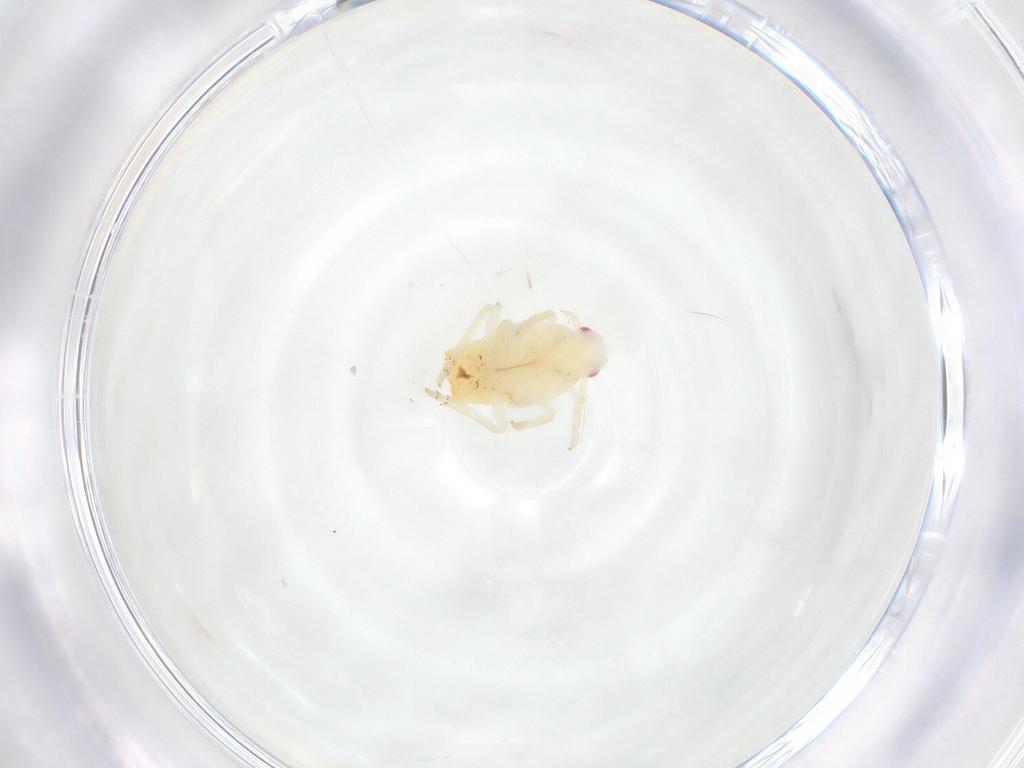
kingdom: Animalia
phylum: Arthropoda
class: Insecta
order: Hemiptera
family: Flatidae
